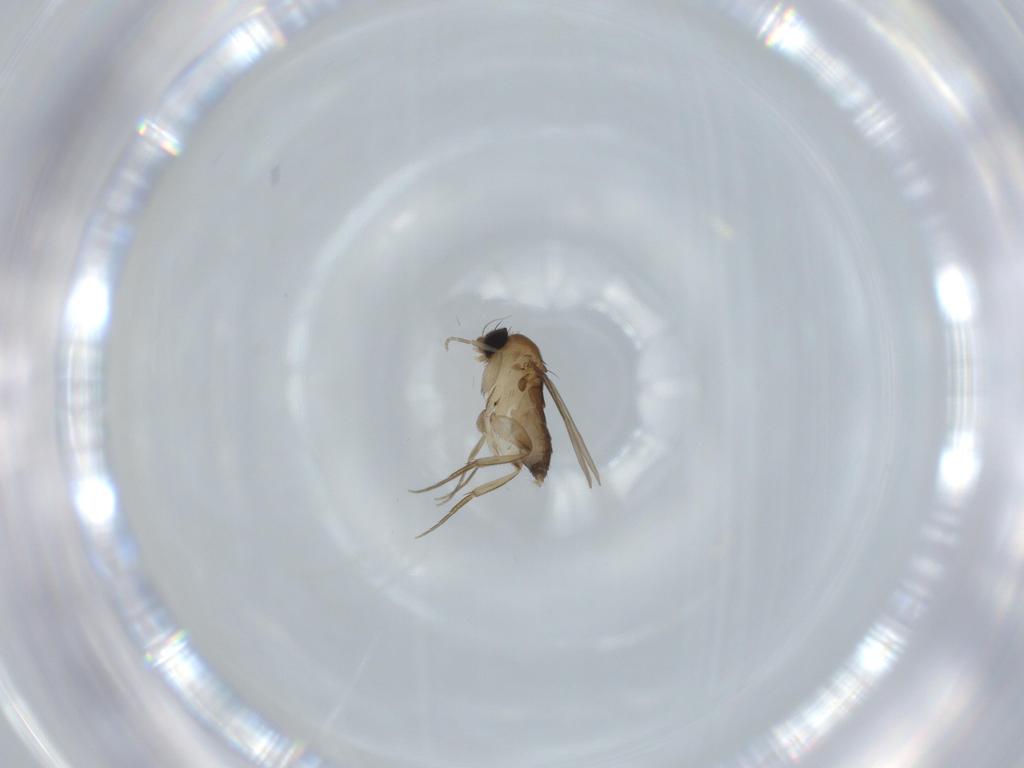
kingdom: Animalia
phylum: Arthropoda
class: Insecta
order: Diptera
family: Phoridae
